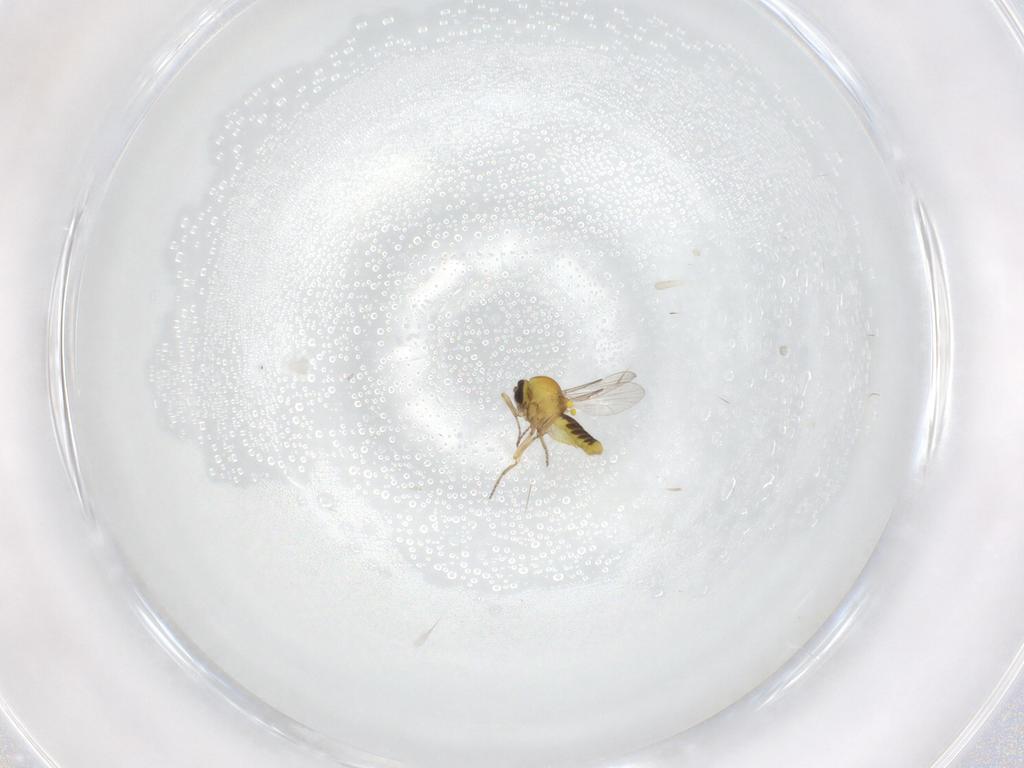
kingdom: Animalia
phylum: Arthropoda
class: Insecta
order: Diptera
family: Ceratopogonidae
